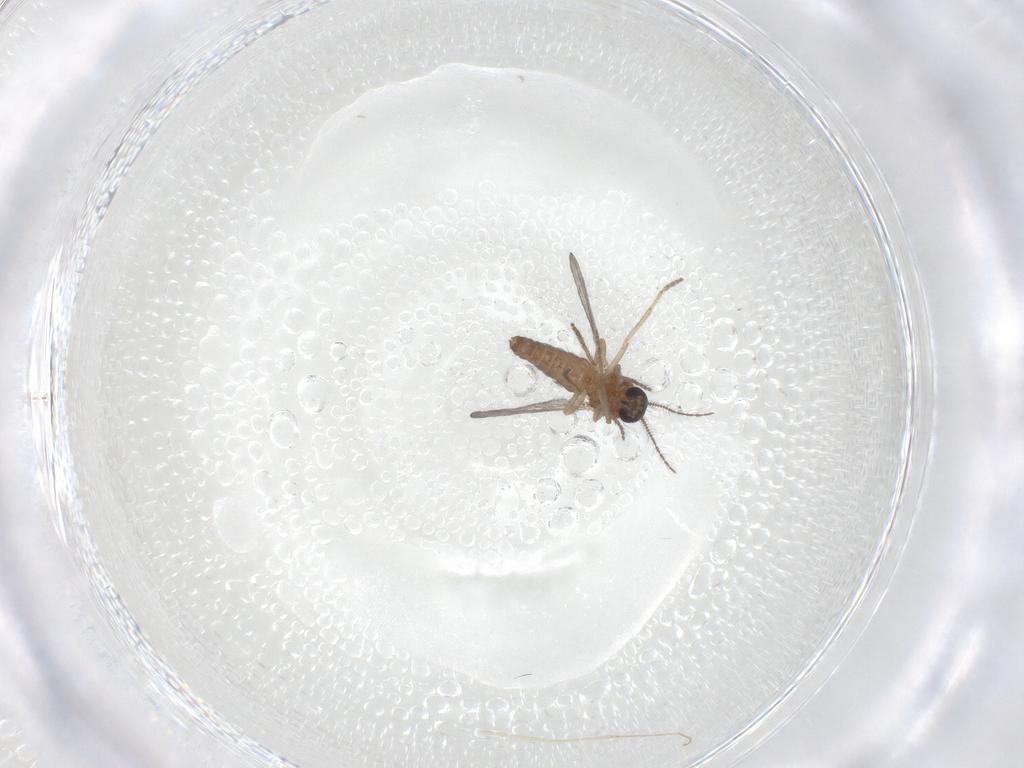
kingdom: Animalia
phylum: Arthropoda
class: Insecta
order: Diptera
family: Ceratopogonidae
